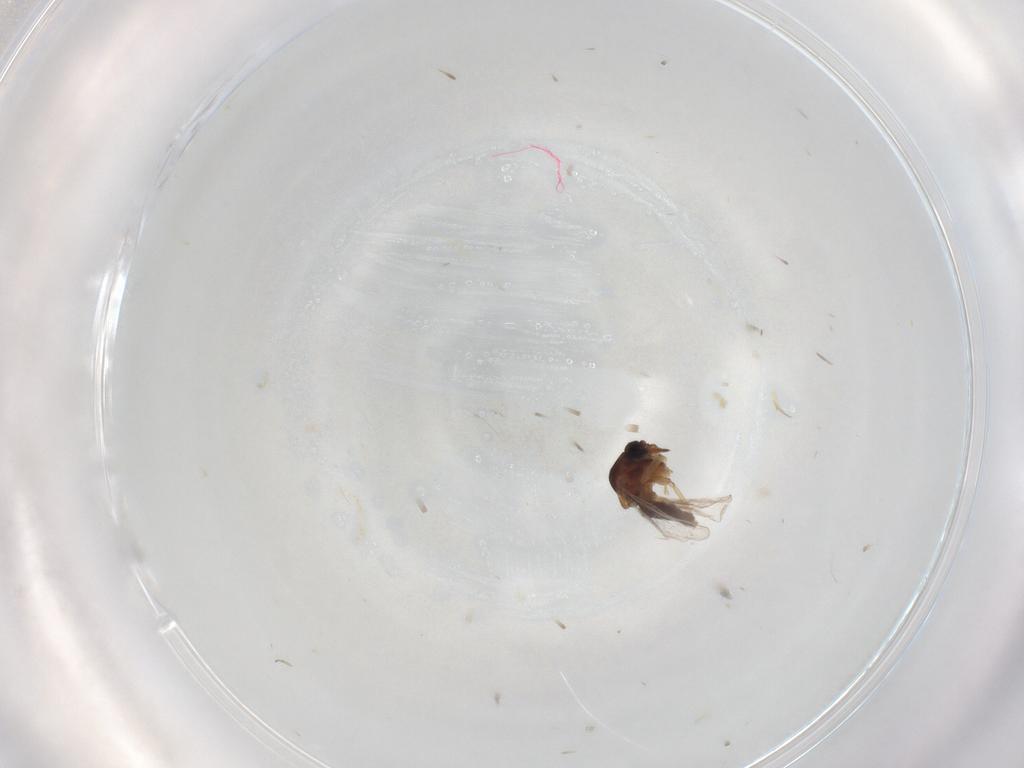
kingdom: Animalia
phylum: Arthropoda
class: Insecta
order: Diptera
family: Ceratopogonidae
